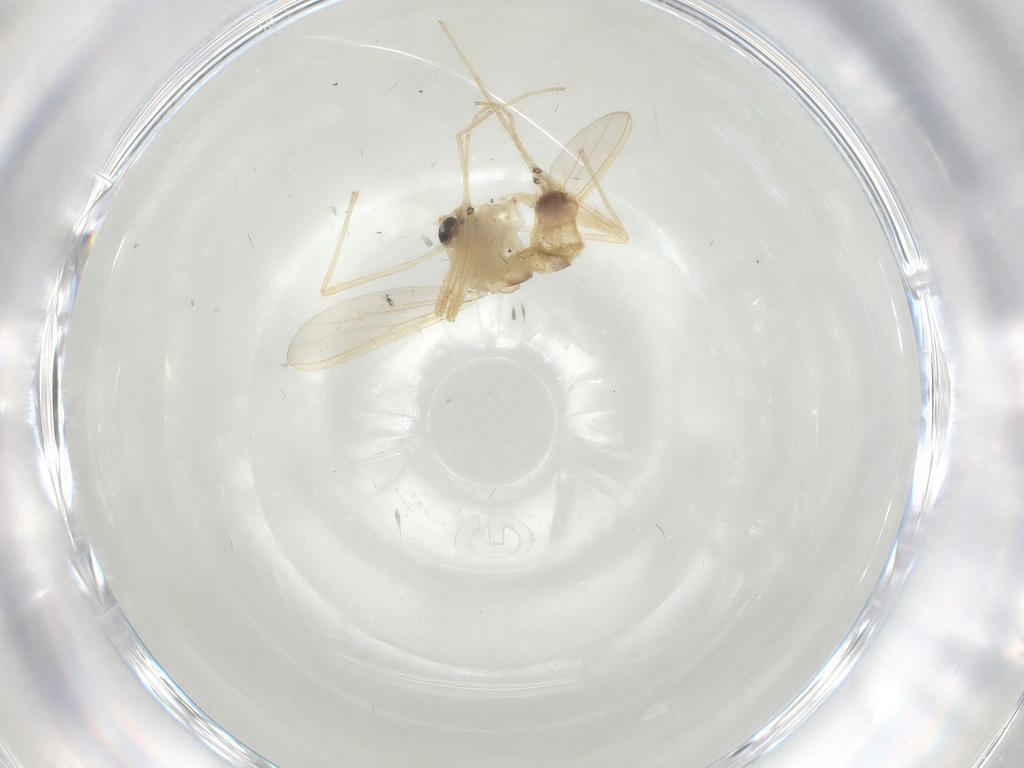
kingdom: Animalia
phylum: Arthropoda
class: Insecta
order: Diptera
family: Chironomidae
